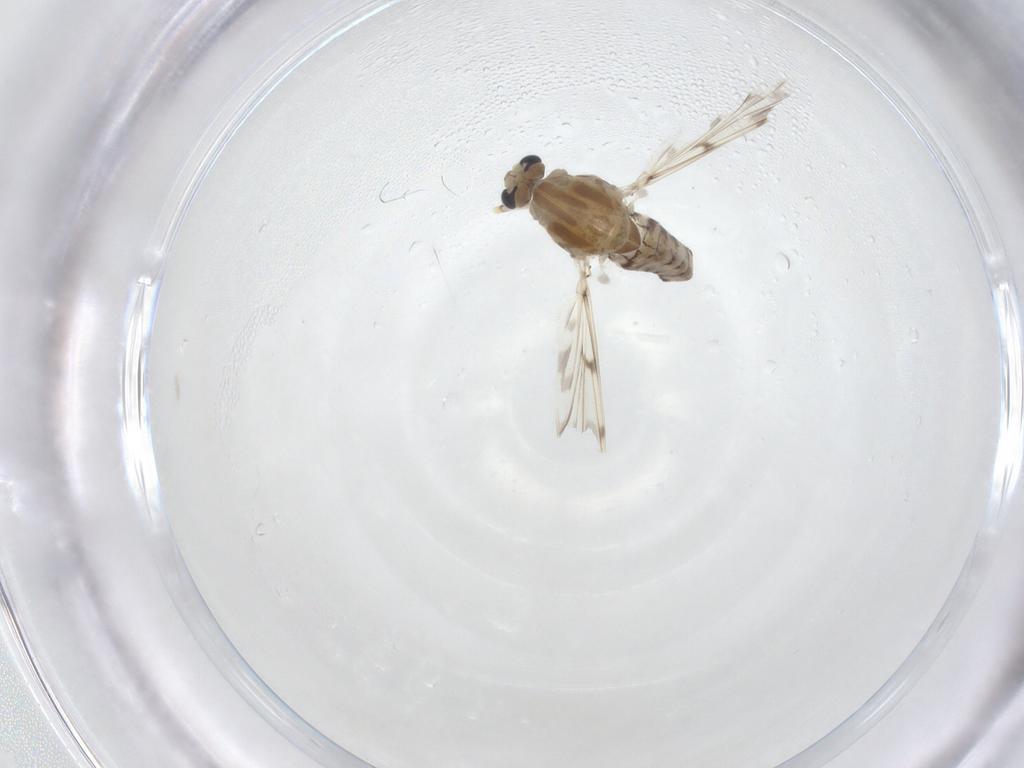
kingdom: Animalia
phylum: Arthropoda
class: Insecta
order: Diptera
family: Chironomidae
